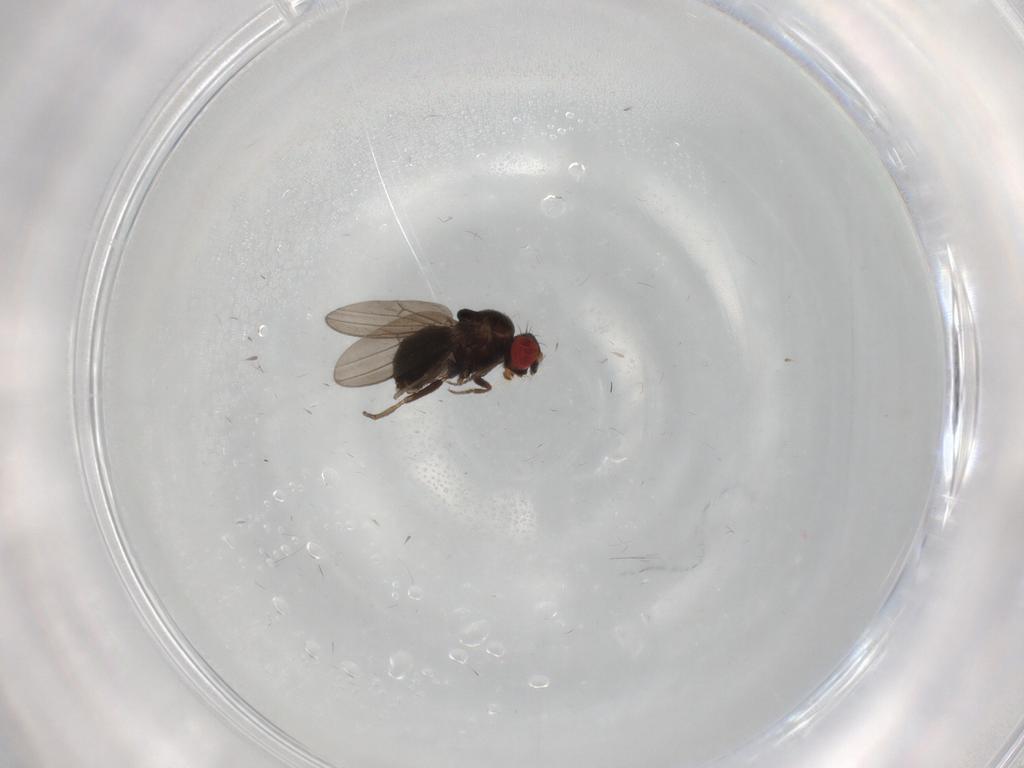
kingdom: Animalia
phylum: Arthropoda
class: Insecta
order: Diptera
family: Drosophilidae
